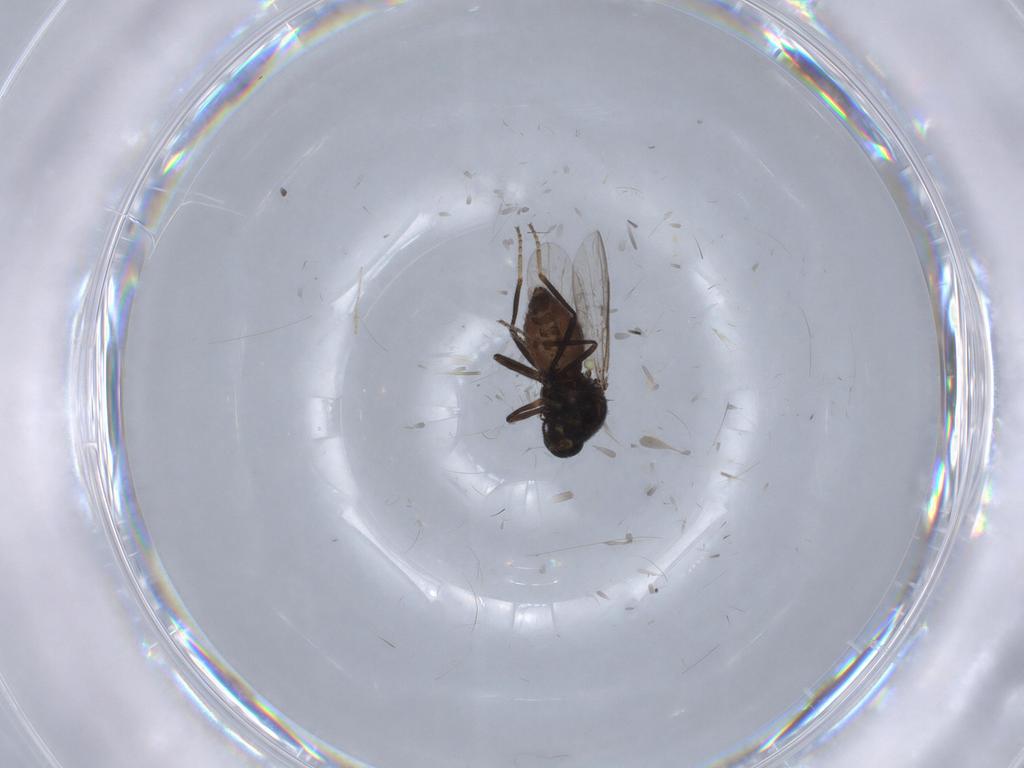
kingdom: Animalia
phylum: Arthropoda
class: Insecta
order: Diptera
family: Ceratopogonidae
